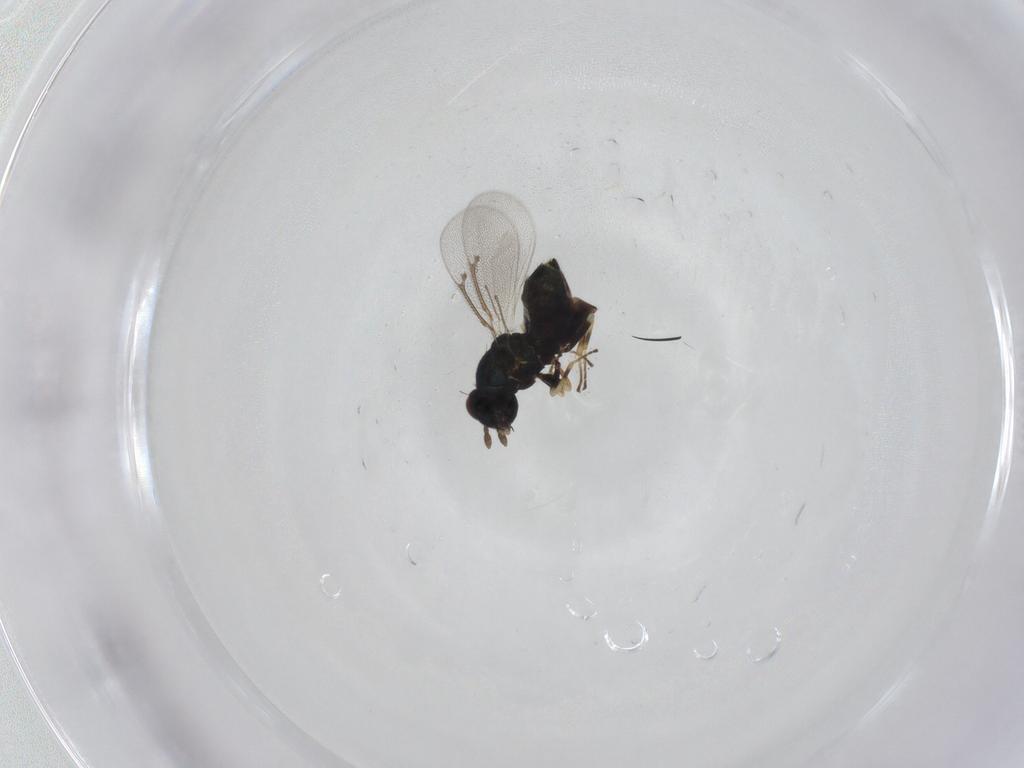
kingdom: Animalia
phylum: Arthropoda
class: Insecta
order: Hymenoptera
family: Eulophidae
